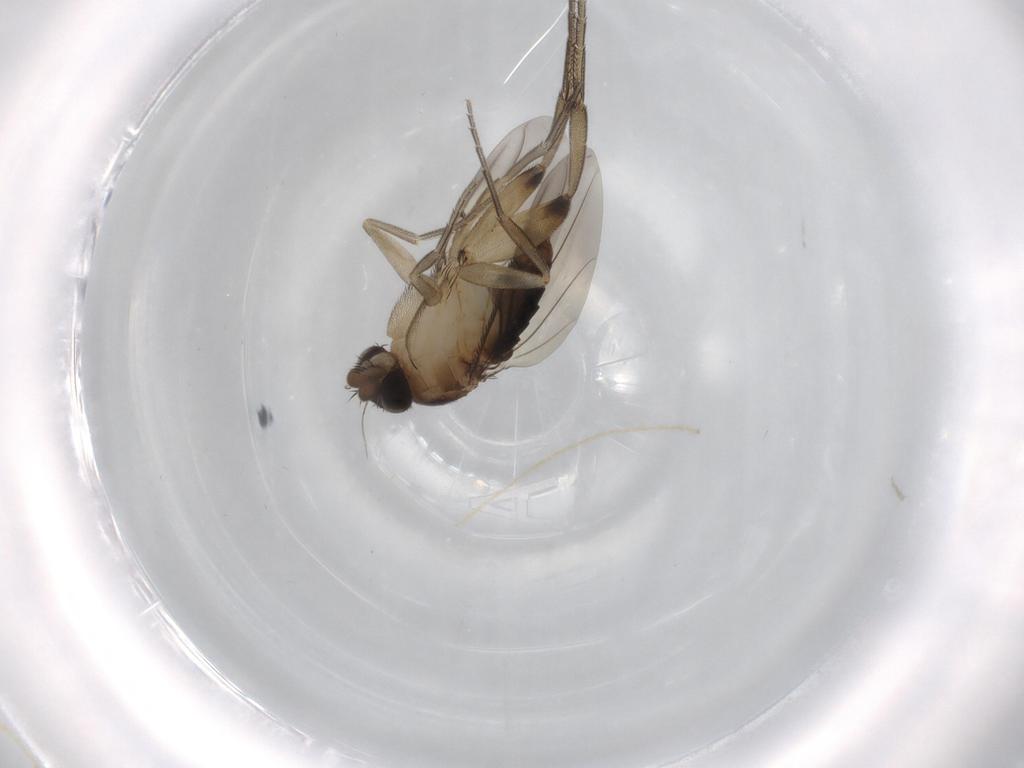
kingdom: Animalia
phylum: Arthropoda
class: Insecta
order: Diptera
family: Chironomidae
